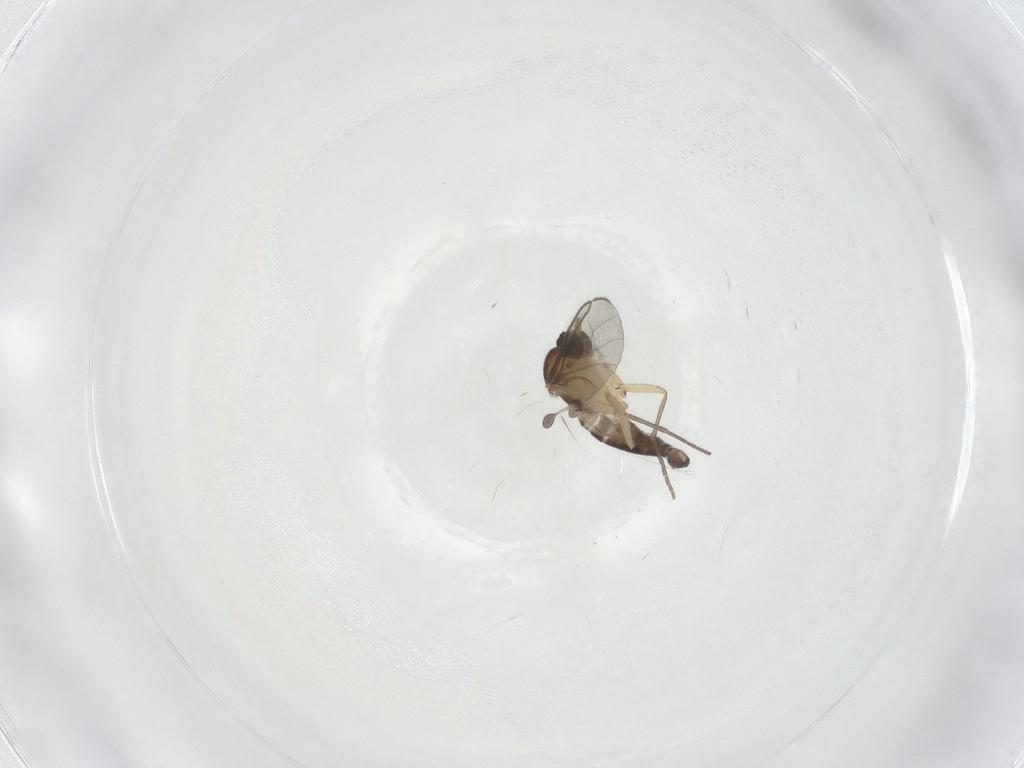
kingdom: Animalia
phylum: Arthropoda
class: Insecta
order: Diptera
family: Sciaridae
